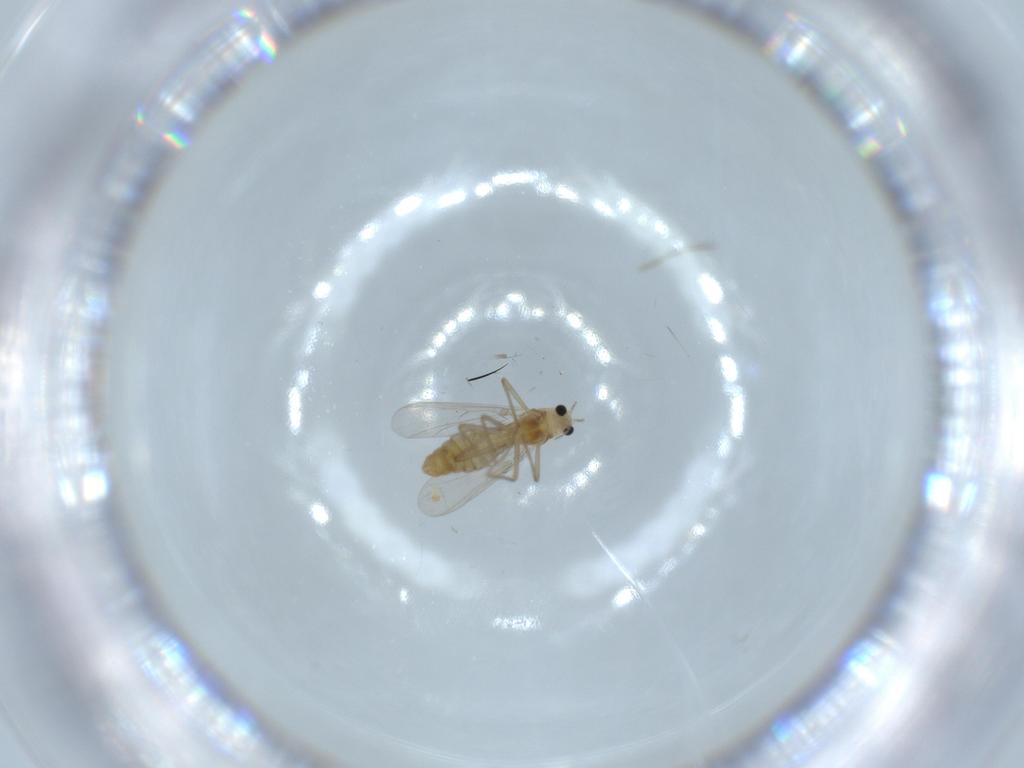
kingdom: Animalia
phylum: Arthropoda
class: Insecta
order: Diptera
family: Chironomidae
